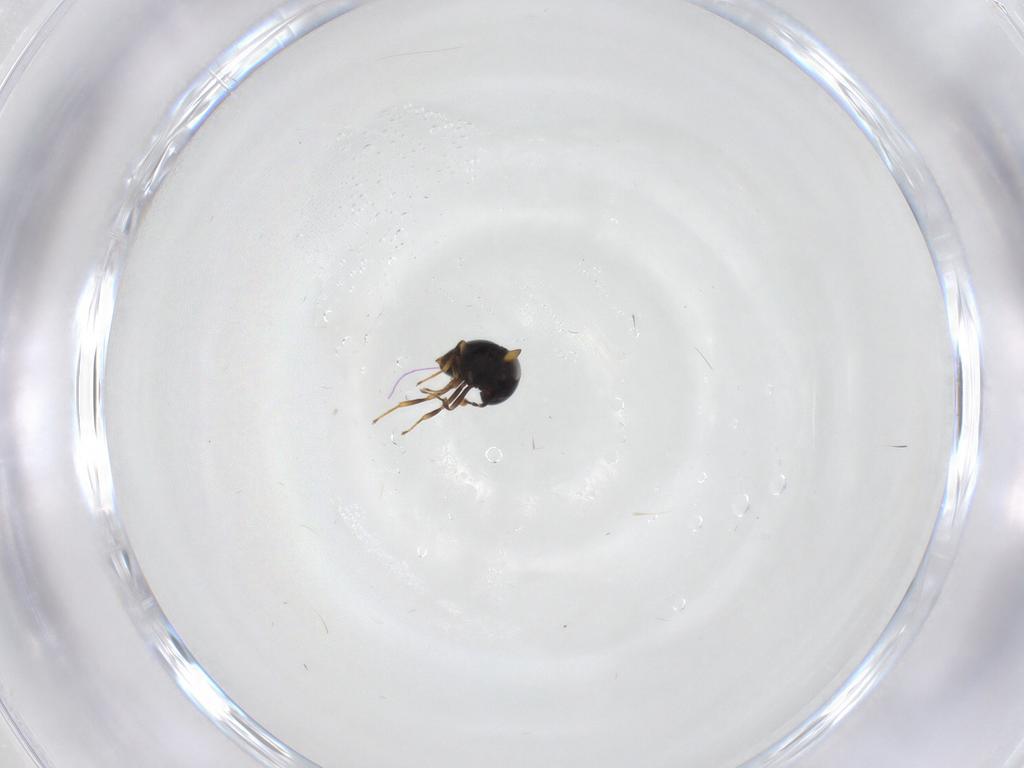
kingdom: Animalia
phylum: Arthropoda
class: Insecta
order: Hymenoptera
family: Scelionidae
